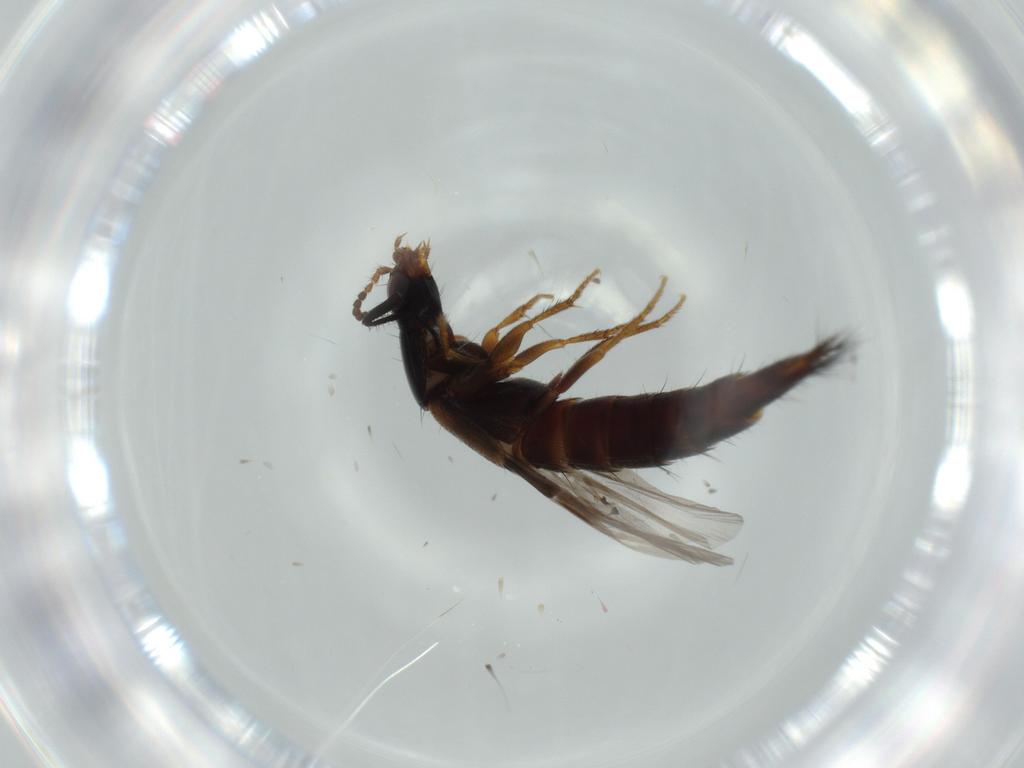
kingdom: Animalia
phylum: Arthropoda
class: Insecta
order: Coleoptera
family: Staphylinidae
